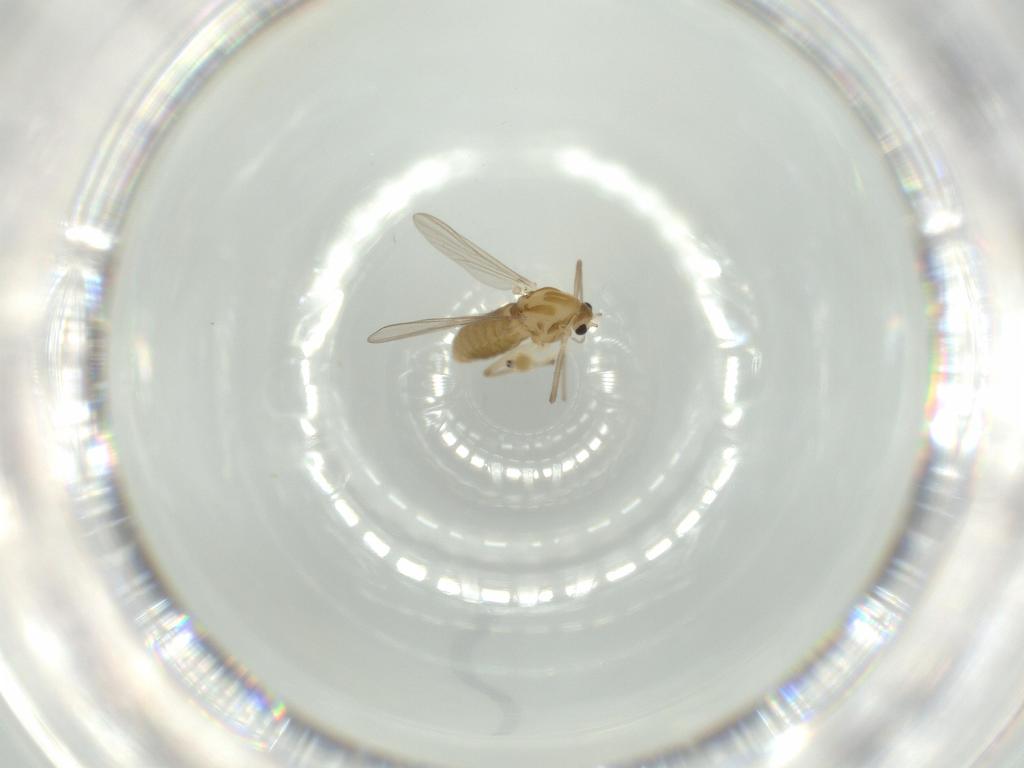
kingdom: Animalia
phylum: Arthropoda
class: Insecta
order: Diptera
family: Chironomidae
